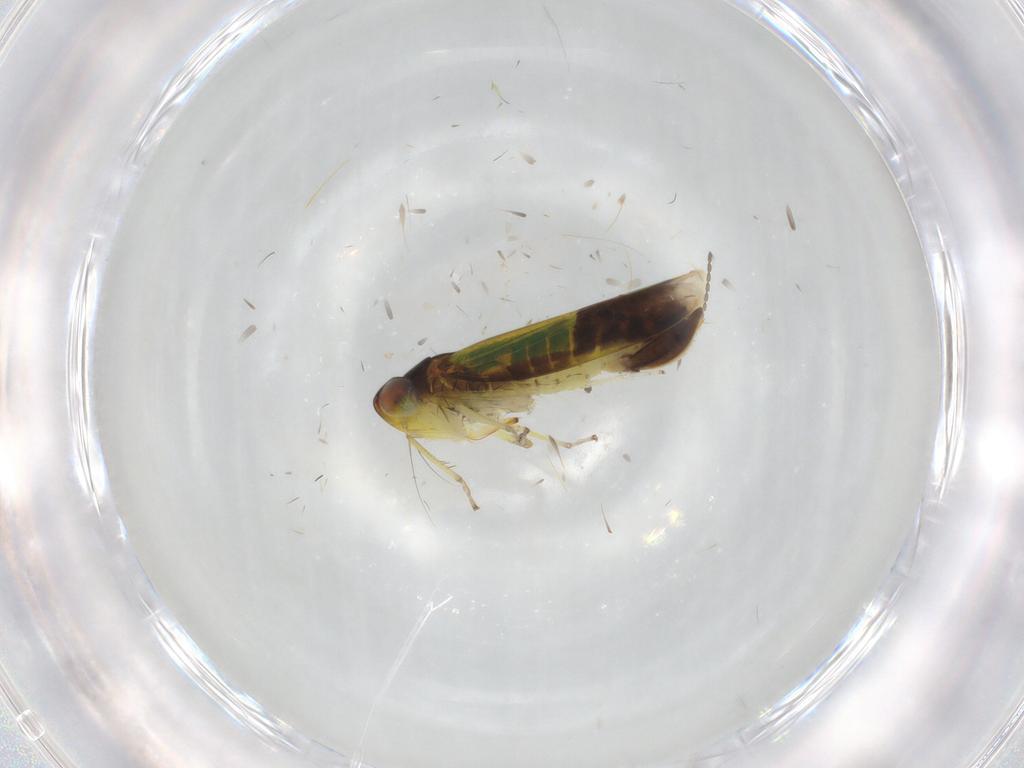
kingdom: Animalia
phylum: Arthropoda
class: Insecta
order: Hemiptera
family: Cicadellidae
